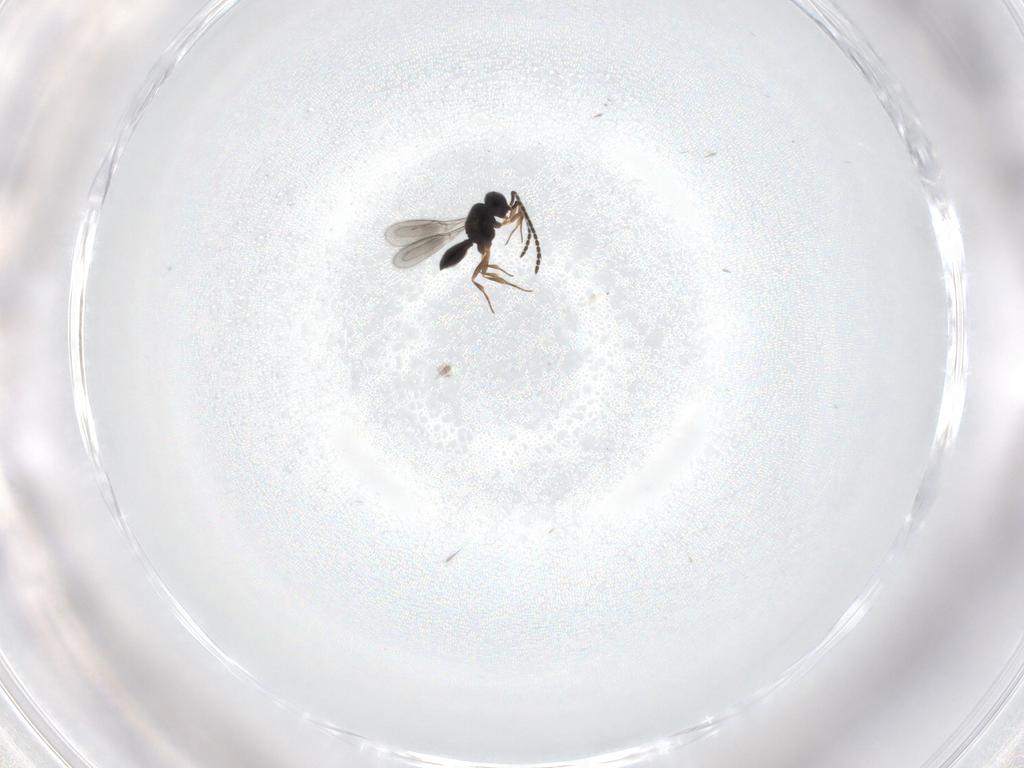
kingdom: Animalia
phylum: Arthropoda
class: Insecta
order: Hymenoptera
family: Scelionidae
